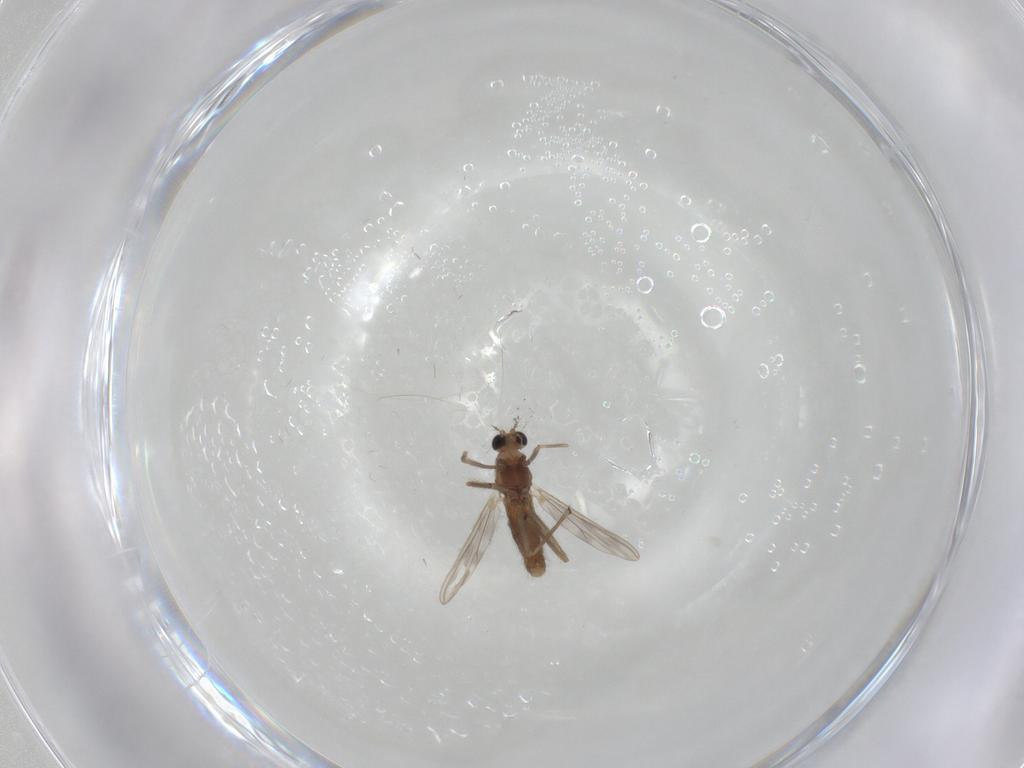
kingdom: Animalia
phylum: Arthropoda
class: Insecta
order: Diptera
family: Chironomidae
